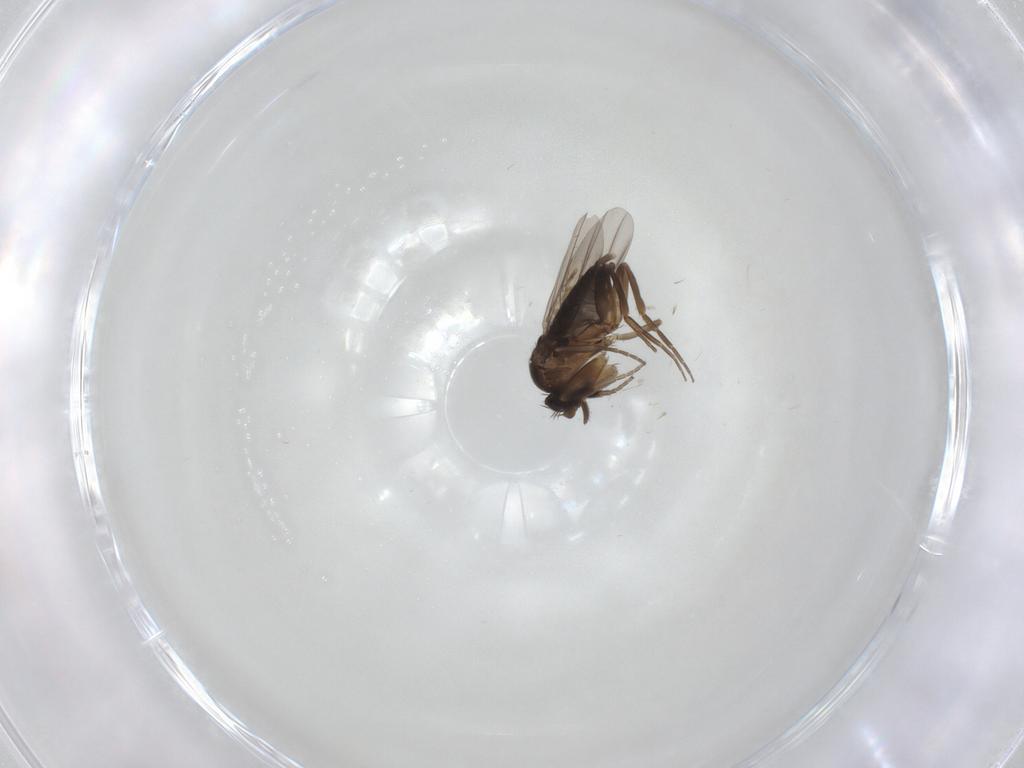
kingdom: Animalia
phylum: Arthropoda
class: Insecta
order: Diptera
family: Phoridae
